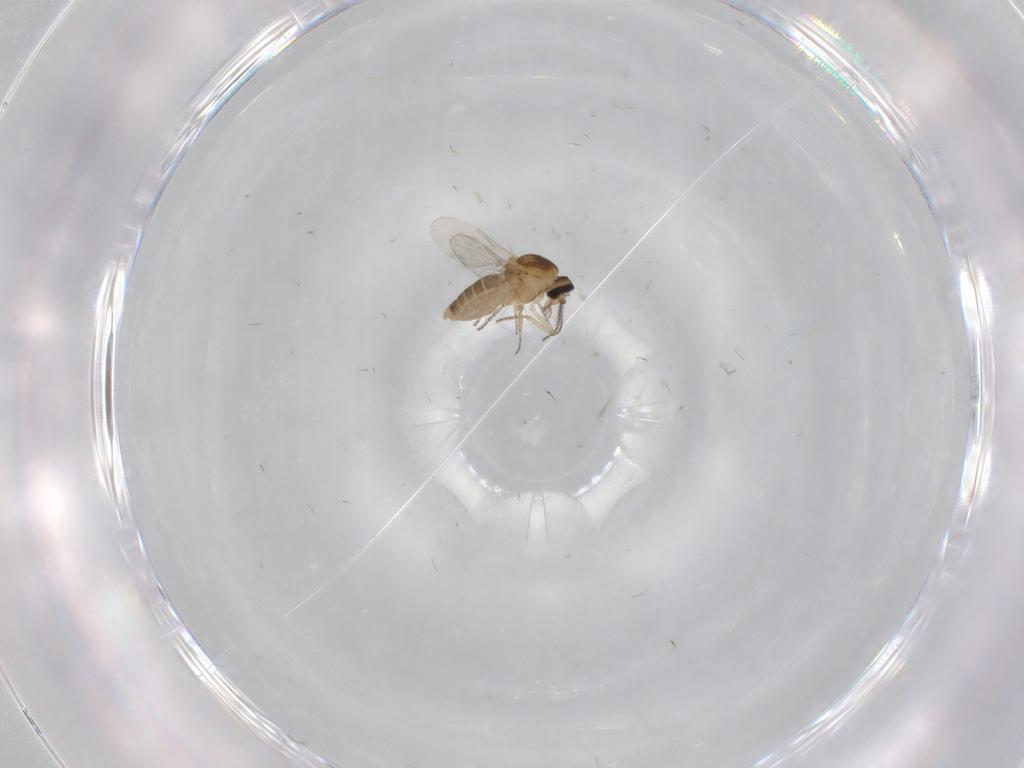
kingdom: Animalia
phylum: Arthropoda
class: Insecta
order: Diptera
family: Ceratopogonidae
